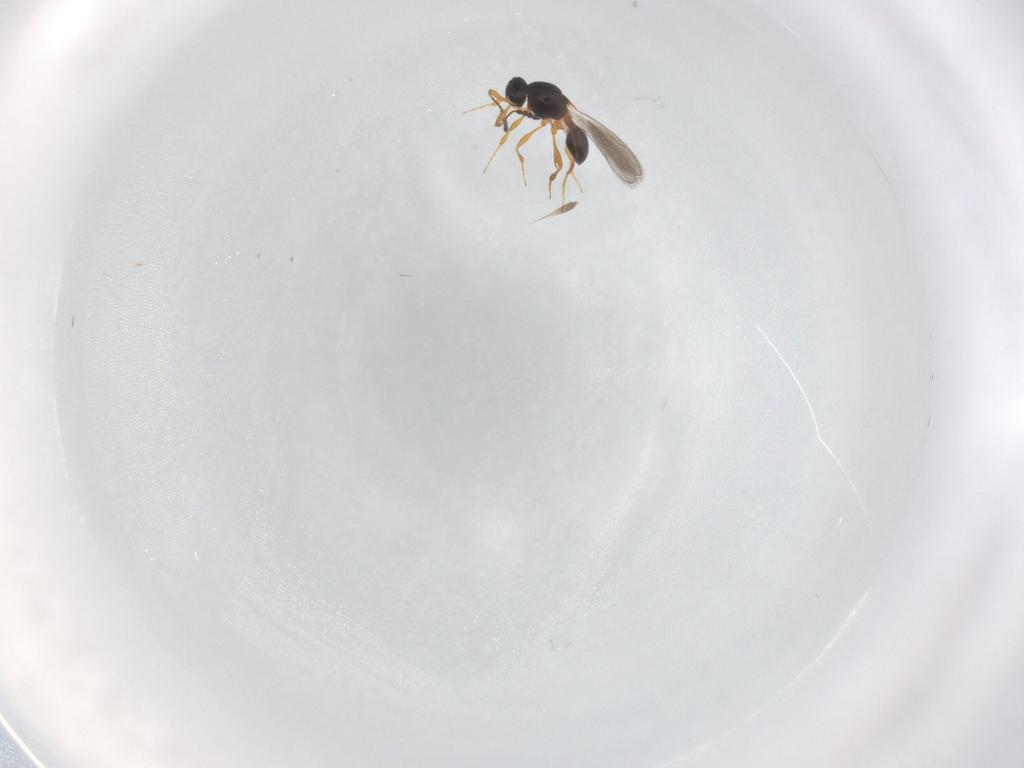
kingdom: Animalia
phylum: Arthropoda
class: Insecta
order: Hymenoptera
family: Platygastridae
